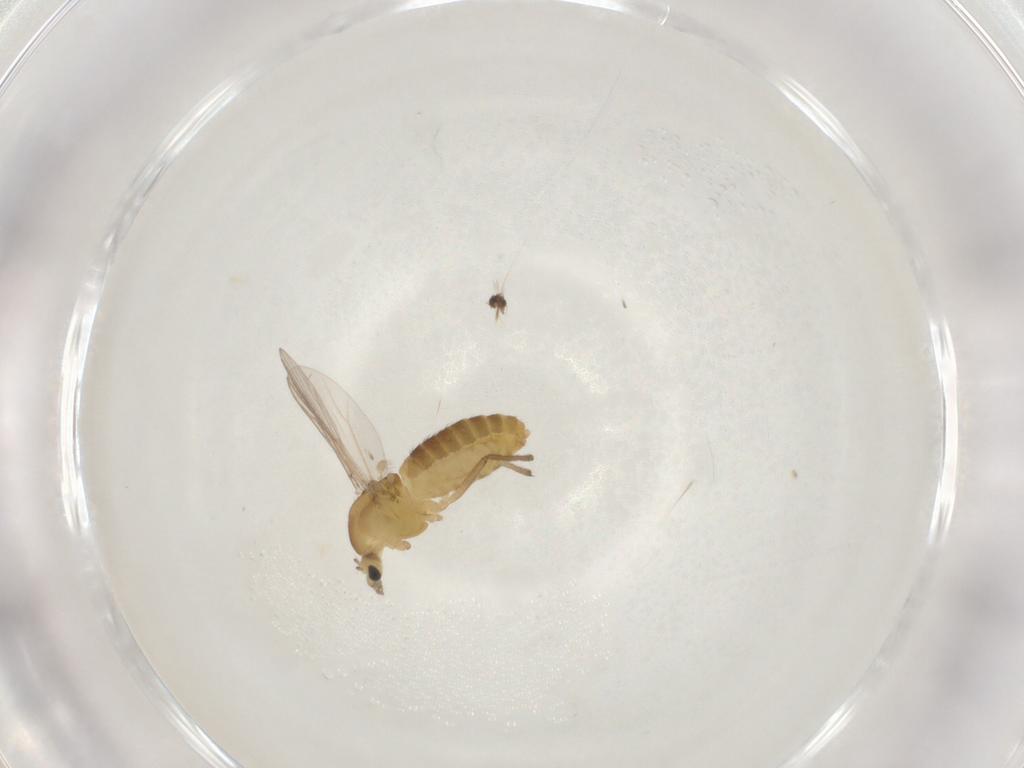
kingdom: Animalia
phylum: Arthropoda
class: Insecta
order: Diptera
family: Chironomidae
